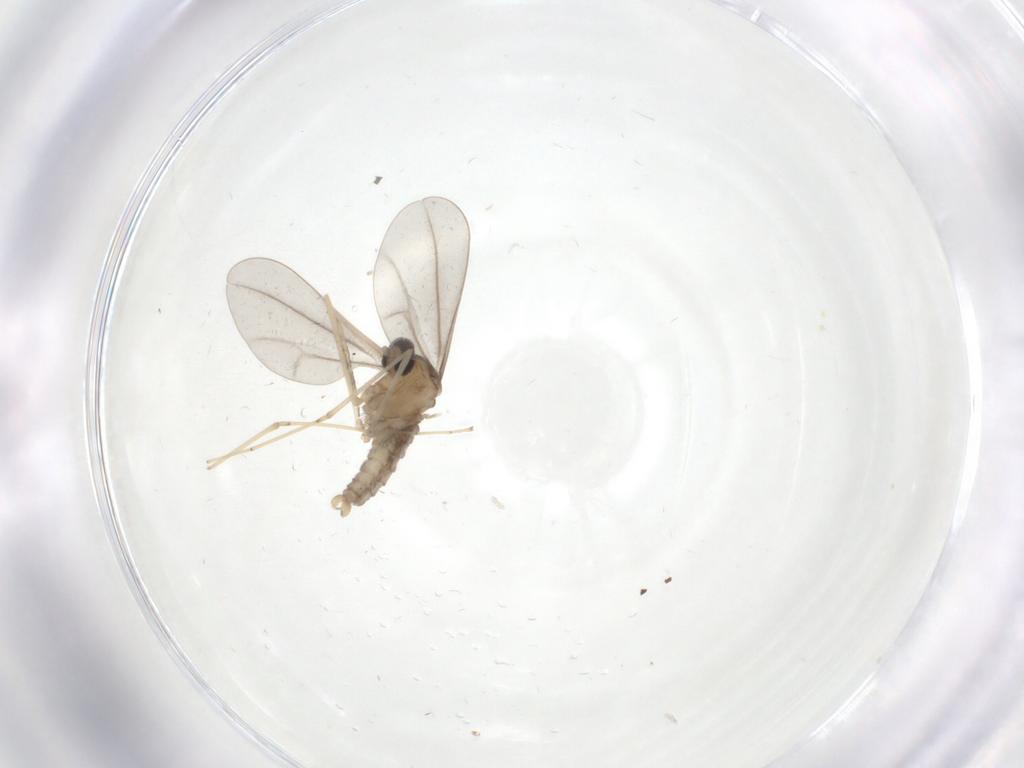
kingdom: Animalia
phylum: Arthropoda
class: Insecta
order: Diptera
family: Cecidomyiidae
